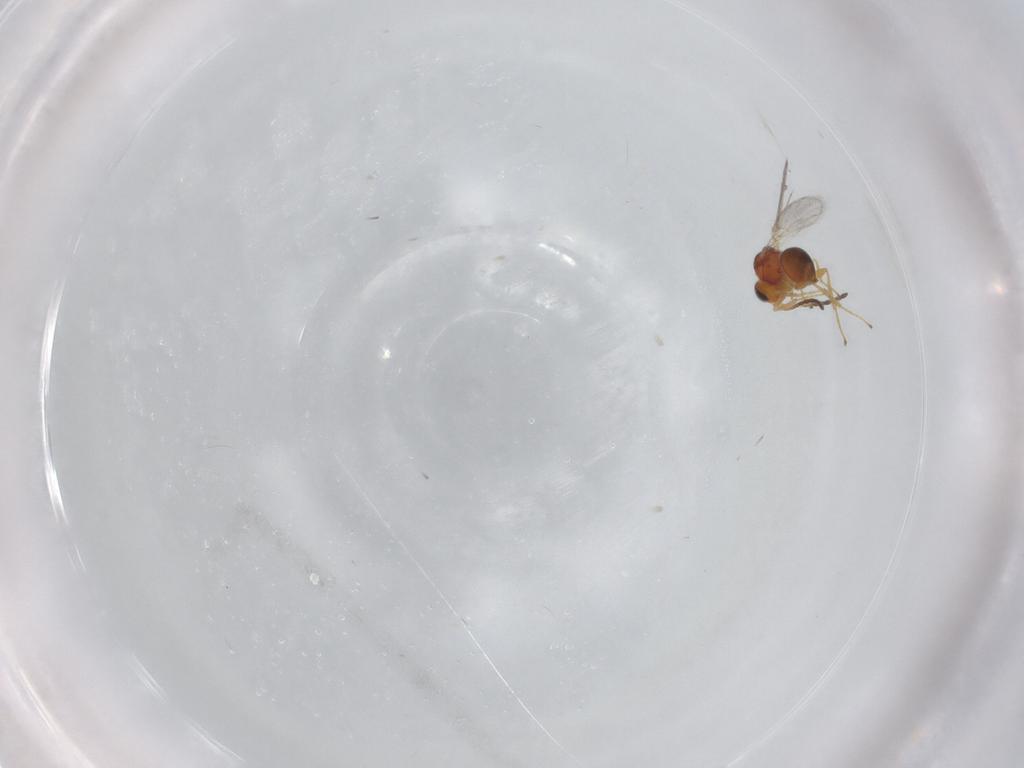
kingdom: Animalia
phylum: Arthropoda
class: Insecta
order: Hymenoptera
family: Figitidae
